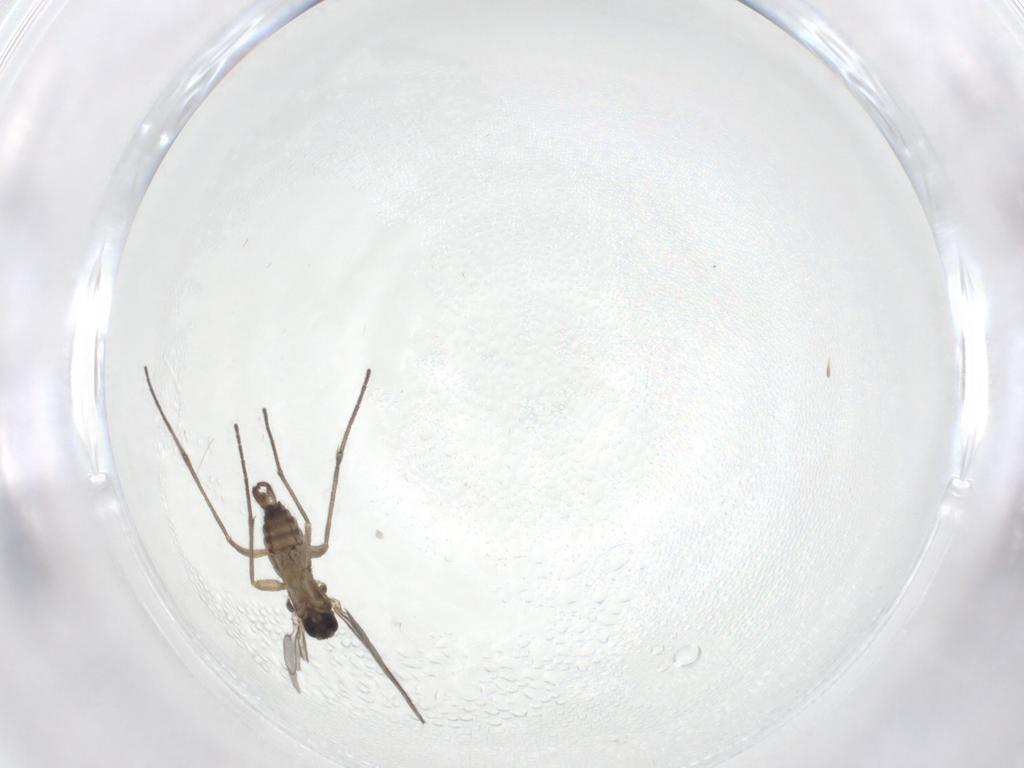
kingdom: Animalia
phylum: Arthropoda
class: Insecta
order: Diptera
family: Sciaridae
